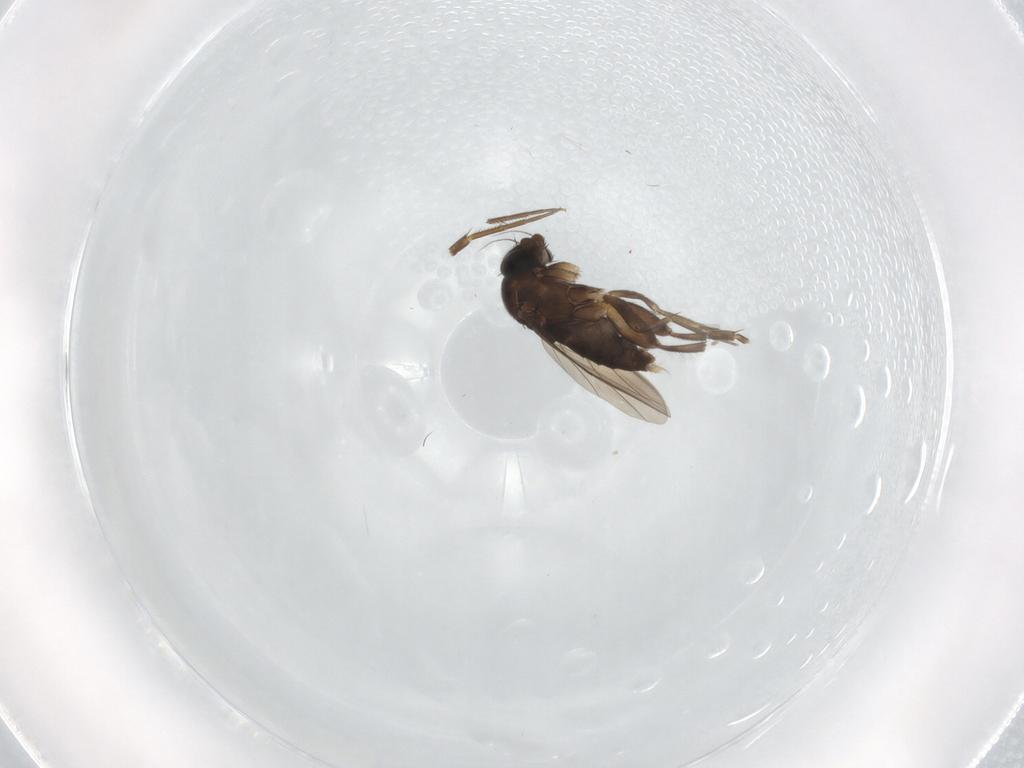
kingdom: Animalia
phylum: Arthropoda
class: Insecta
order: Diptera
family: Phoridae
